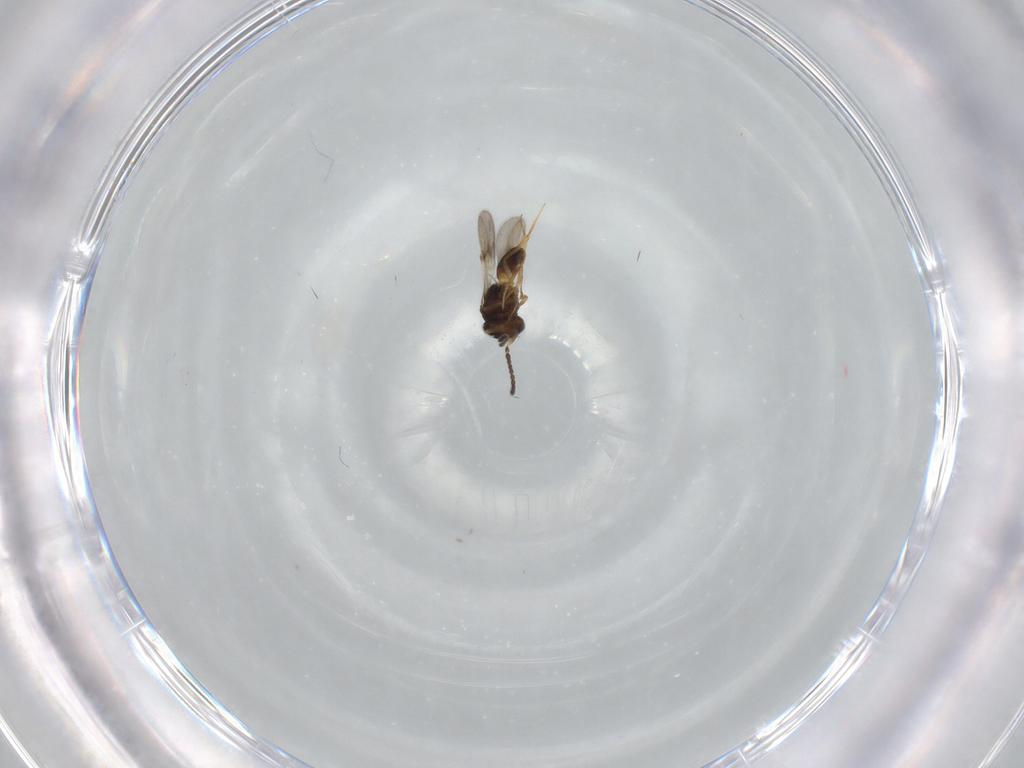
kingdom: Animalia
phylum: Arthropoda
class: Arachnida
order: Araneae
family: Pholcidae
